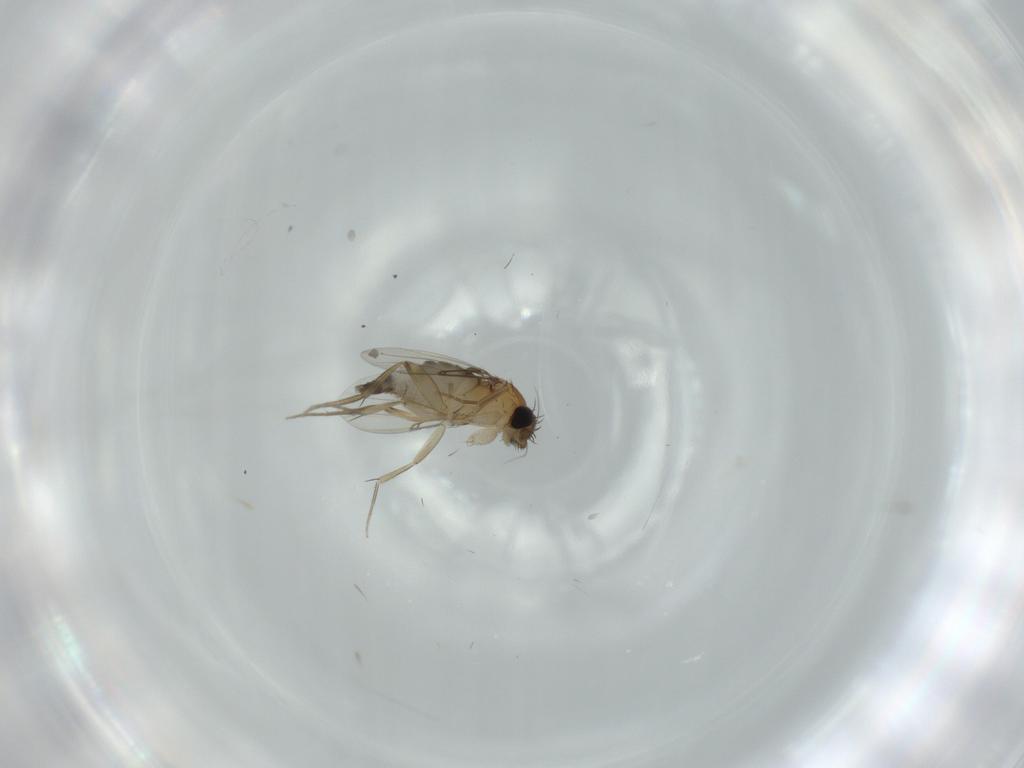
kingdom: Animalia
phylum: Arthropoda
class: Insecta
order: Diptera
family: Phoridae
